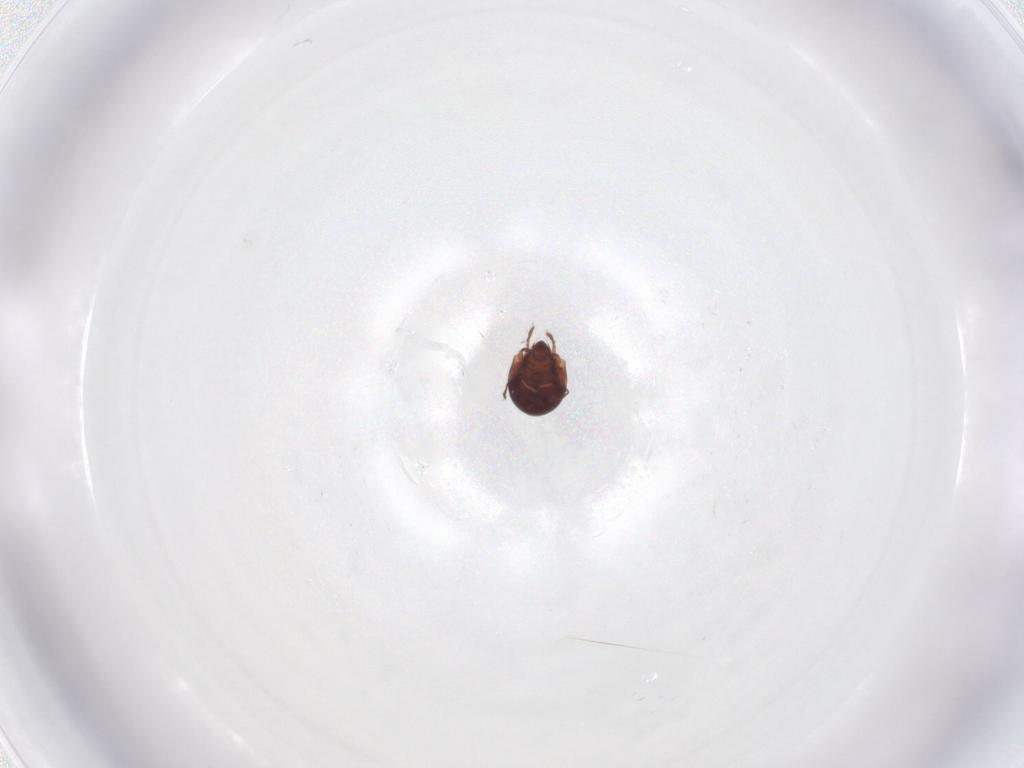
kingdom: Animalia
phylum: Arthropoda
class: Arachnida
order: Sarcoptiformes
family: Humerobatidae
